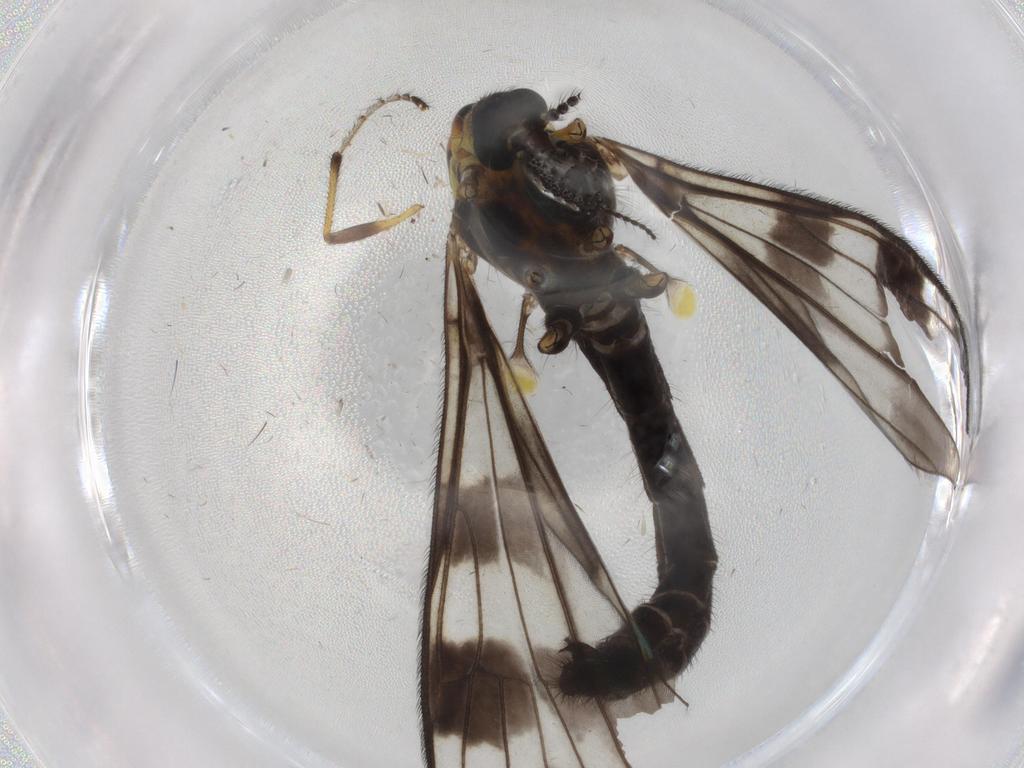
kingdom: Animalia
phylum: Arthropoda
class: Insecta
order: Diptera
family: Limoniidae
